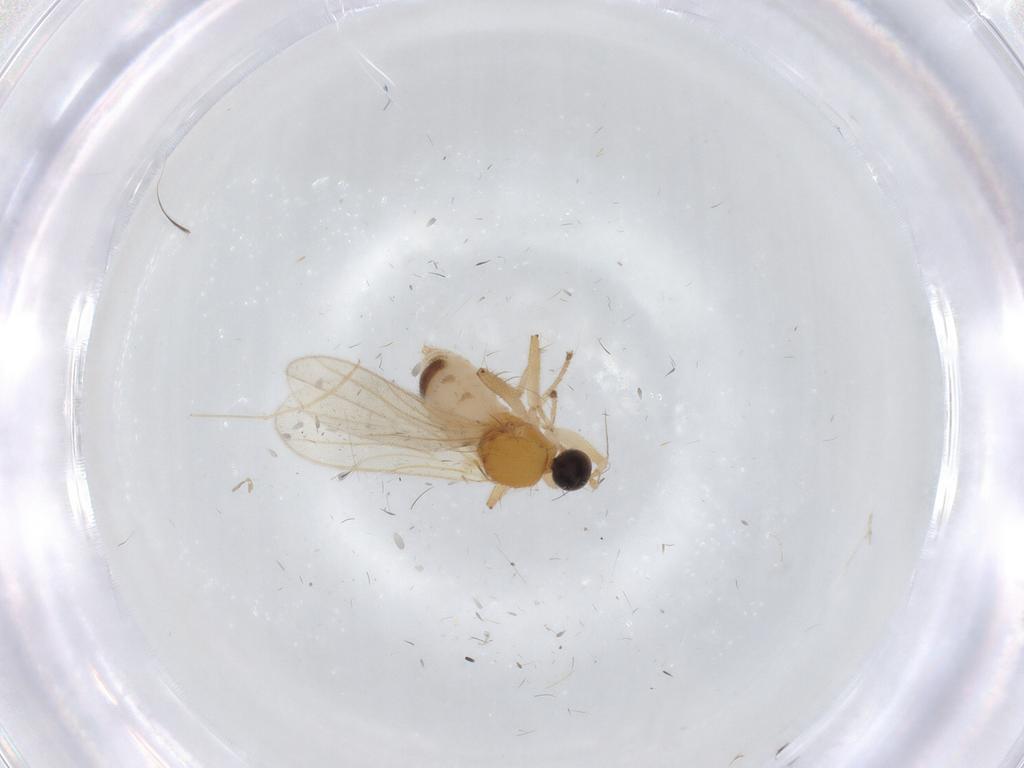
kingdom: Animalia
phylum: Arthropoda
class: Insecta
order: Diptera
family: Hybotidae
